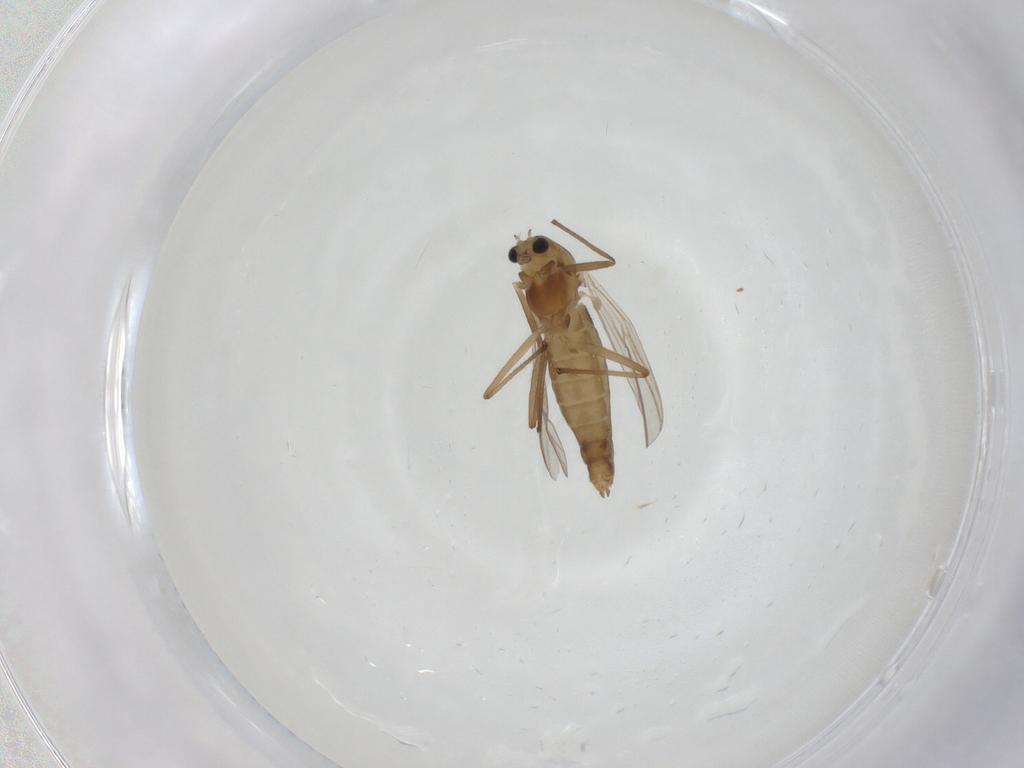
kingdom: Animalia
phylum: Arthropoda
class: Insecta
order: Diptera
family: Chironomidae
